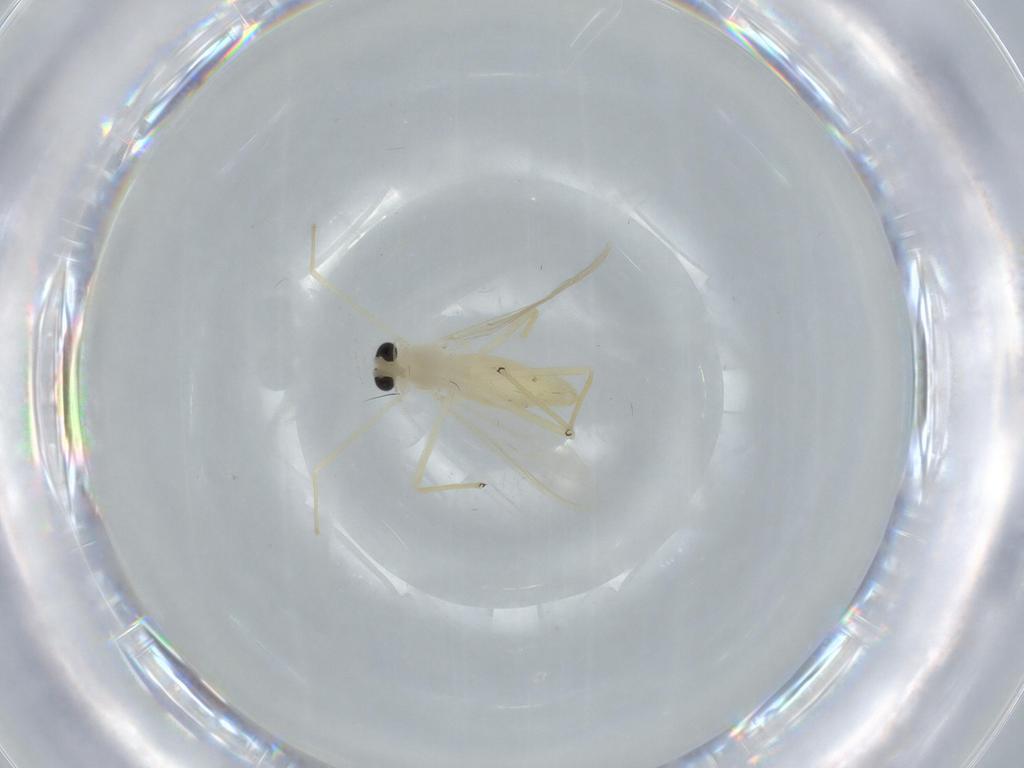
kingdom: Animalia
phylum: Arthropoda
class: Insecta
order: Diptera
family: Chironomidae
